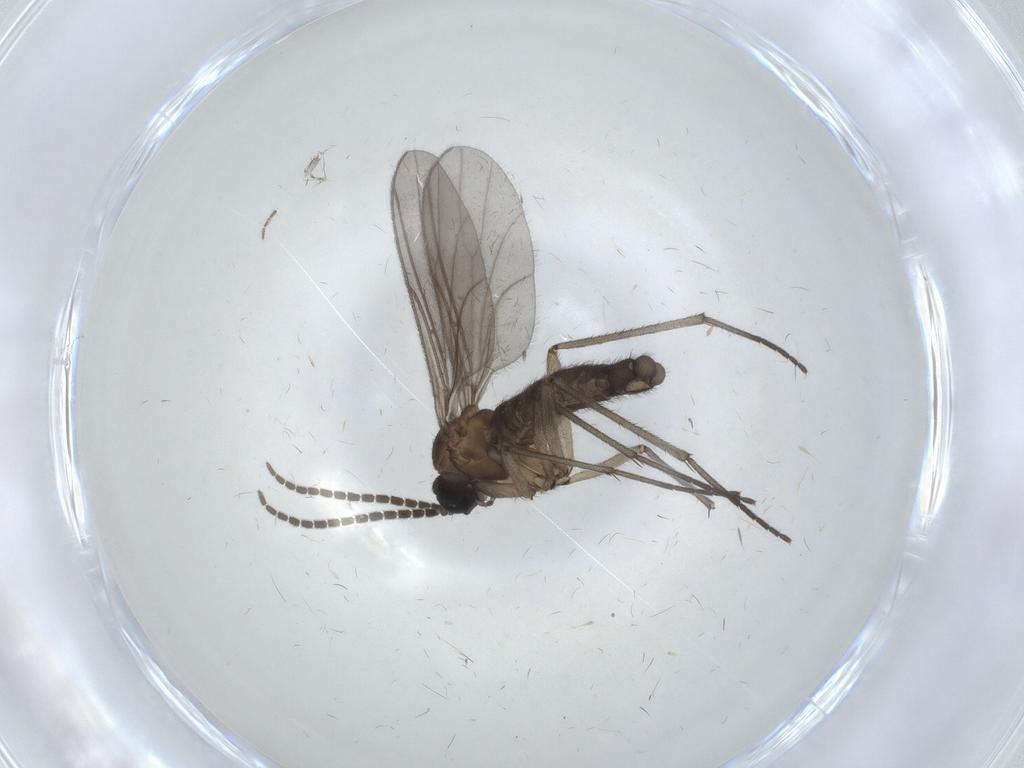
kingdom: Animalia
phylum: Arthropoda
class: Insecta
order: Diptera
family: Sciaridae
